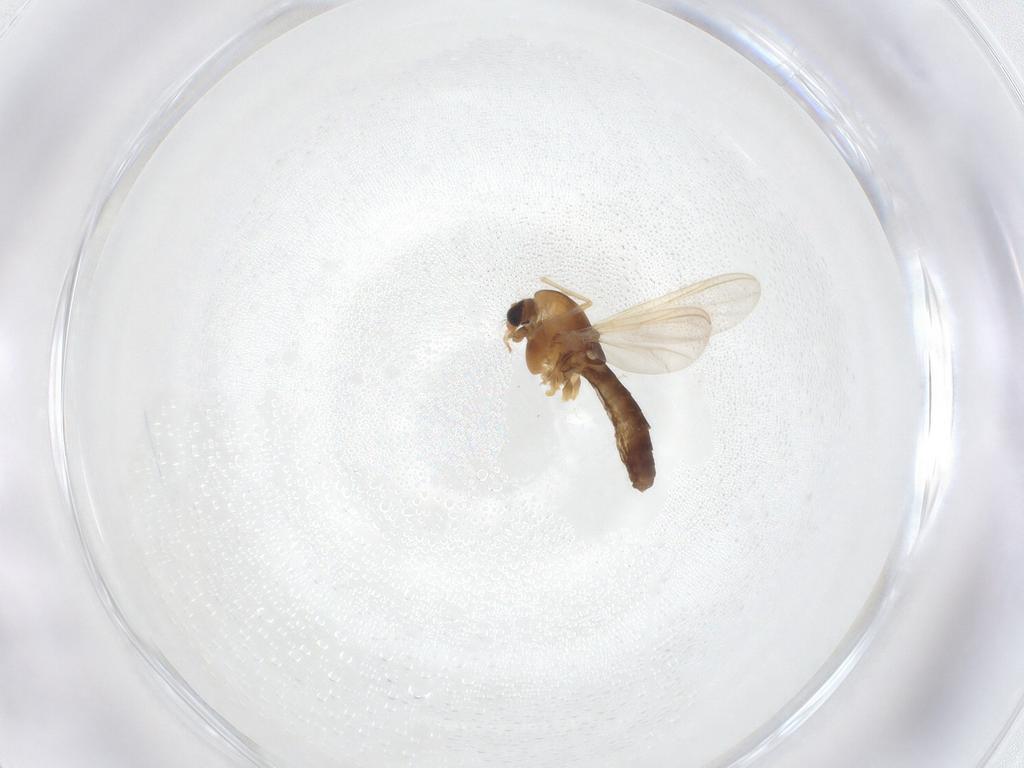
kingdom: Animalia
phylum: Arthropoda
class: Insecta
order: Diptera
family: Chironomidae
